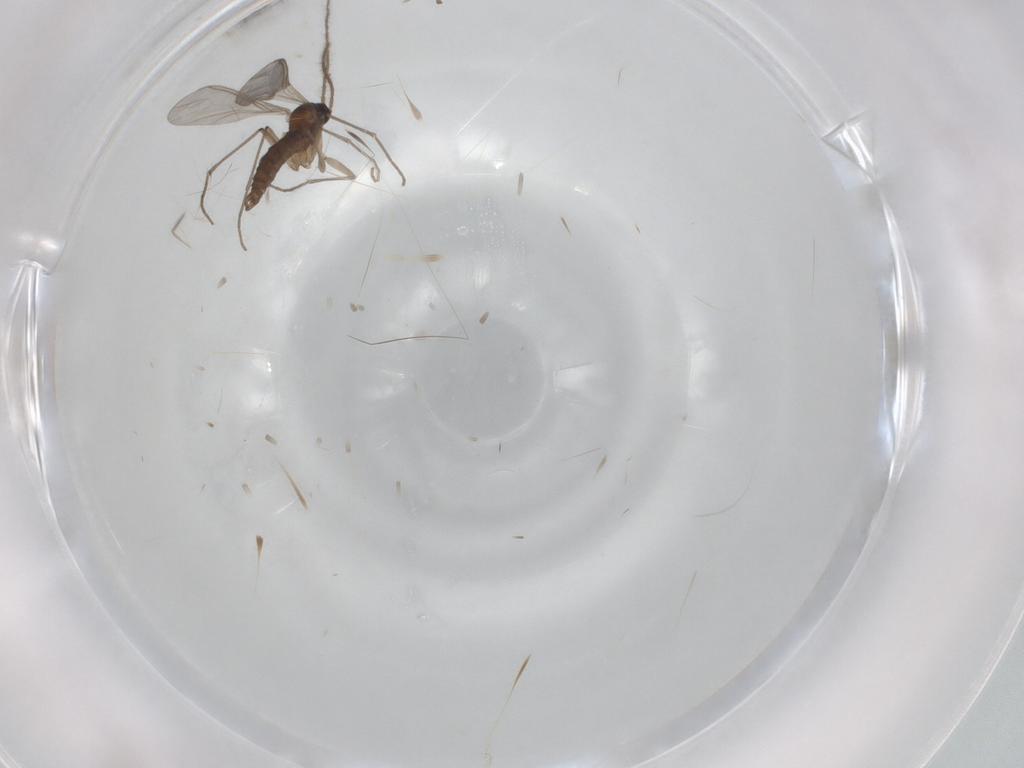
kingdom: Animalia
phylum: Arthropoda
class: Insecta
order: Diptera
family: Sciaridae
